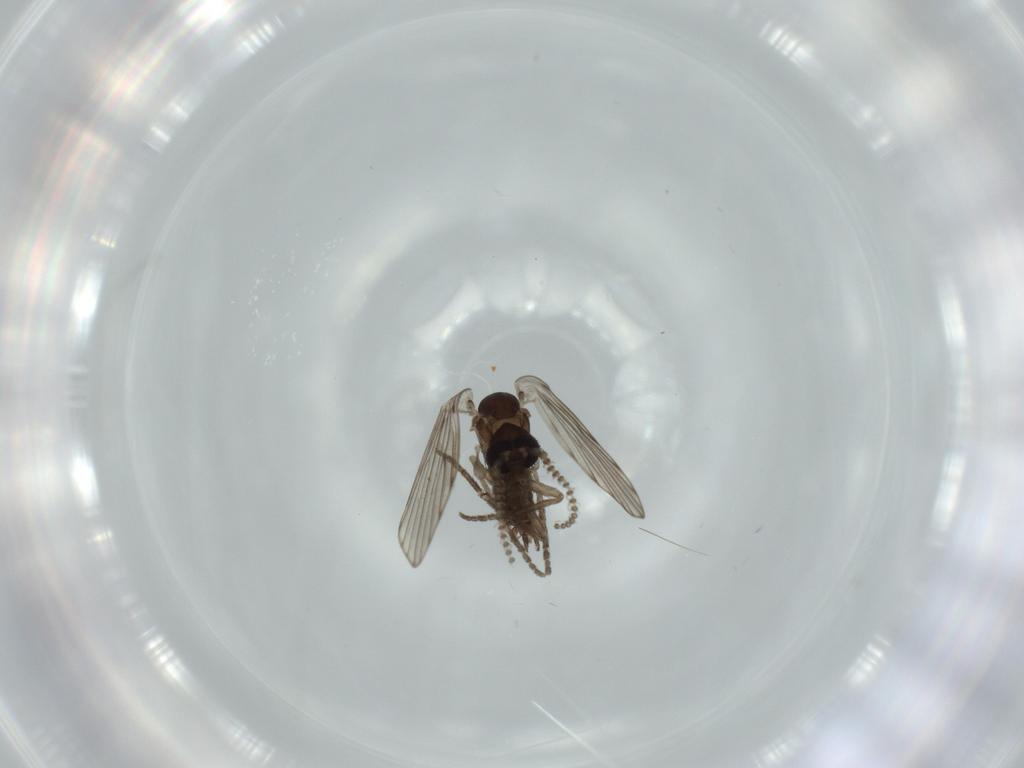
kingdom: Animalia
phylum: Arthropoda
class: Insecta
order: Diptera
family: Psychodidae
